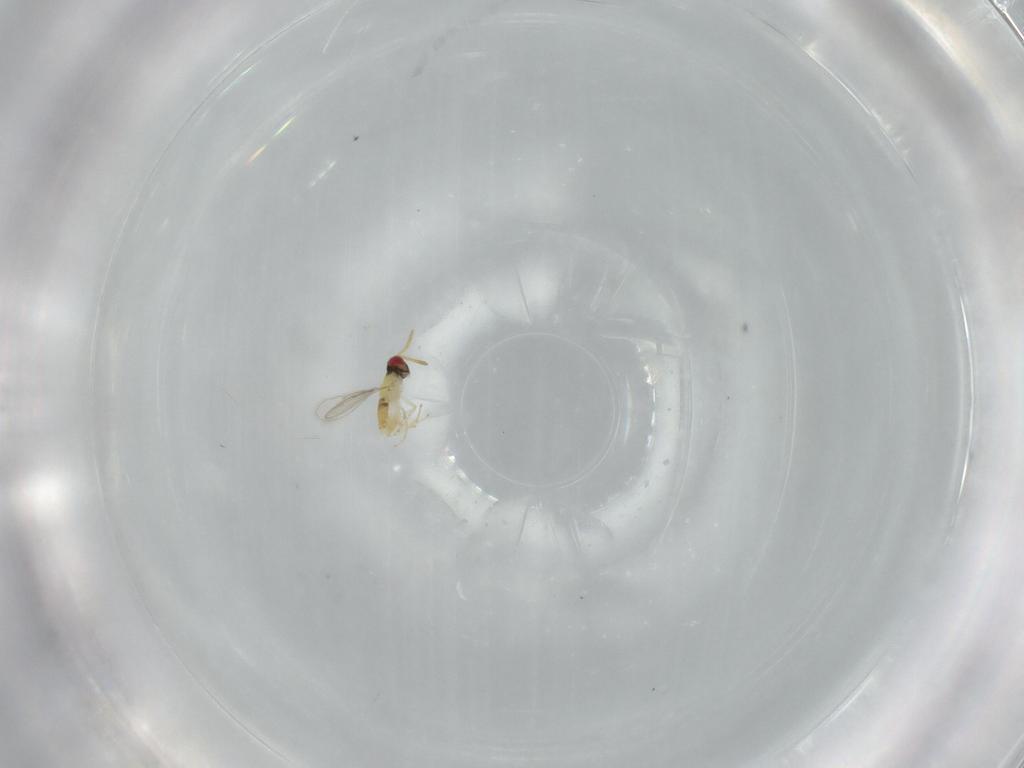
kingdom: Animalia
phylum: Arthropoda
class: Insecta
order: Hymenoptera
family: Aphelinidae
